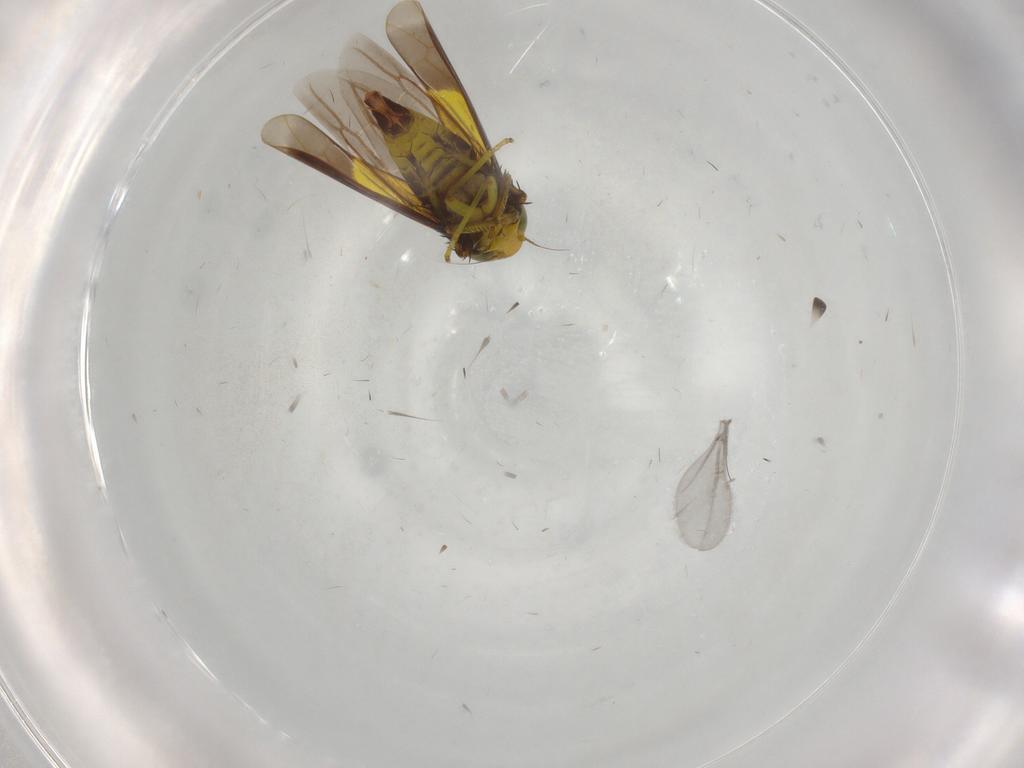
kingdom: Animalia
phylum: Arthropoda
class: Insecta
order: Hemiptera
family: Cicadellidae
